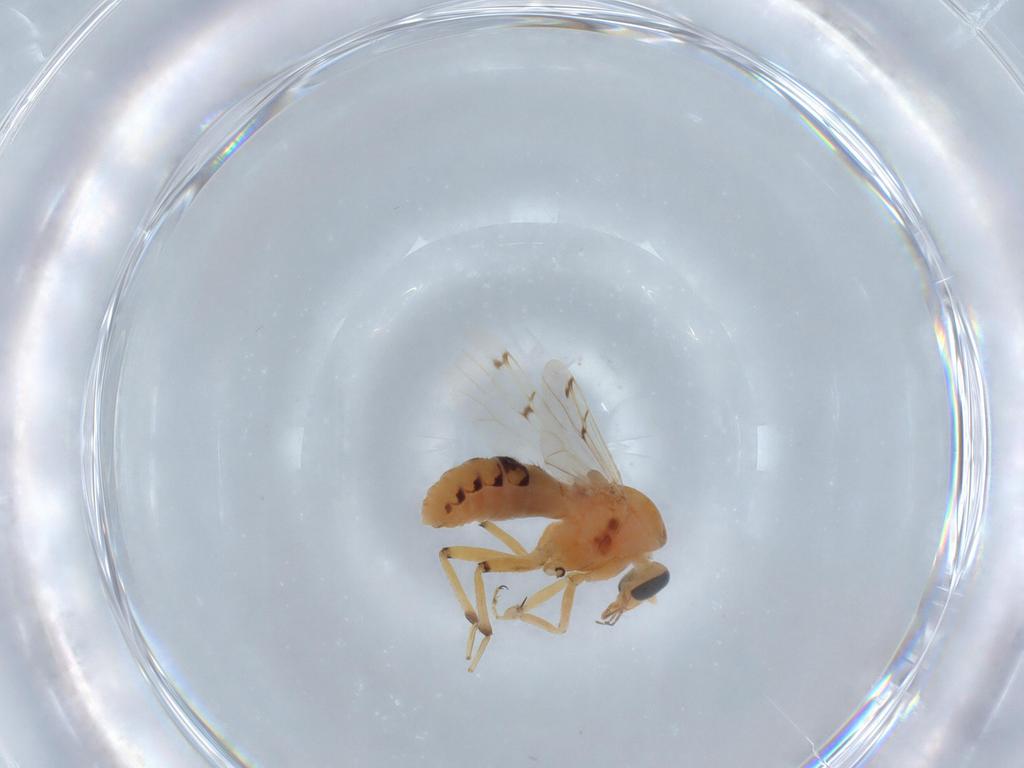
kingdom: Animalia
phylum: Arthropoda
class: Insecta
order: Diptera
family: Ceratopogonidae
